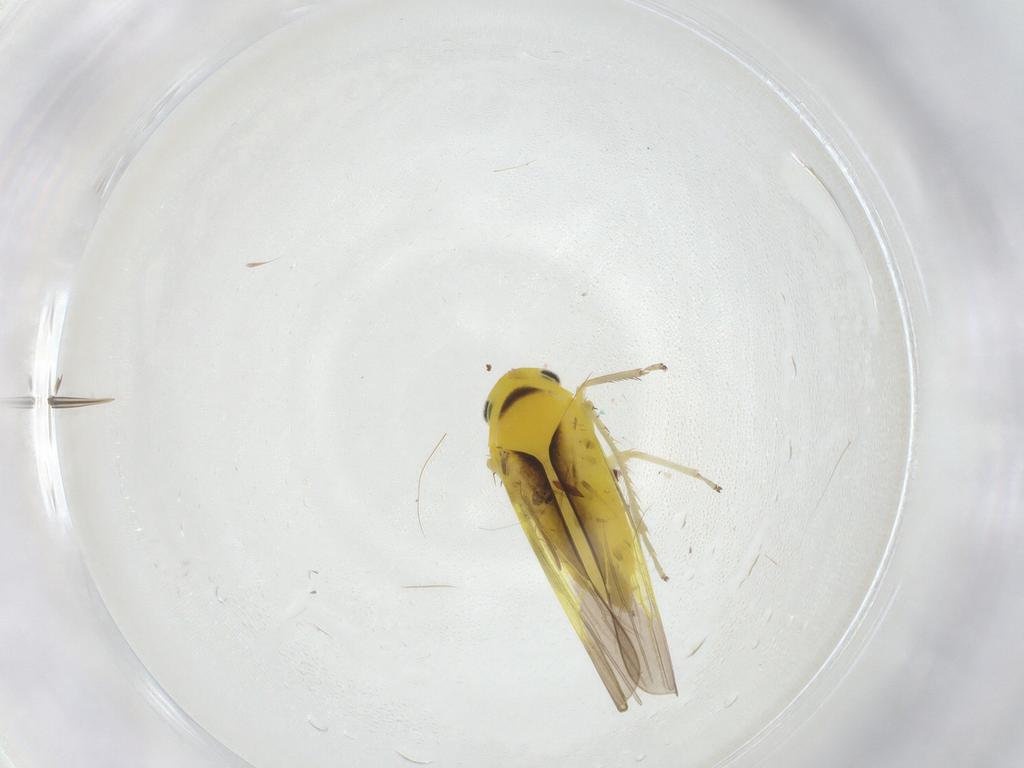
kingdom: Animalia
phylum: Arthropoda
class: Insecta
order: Hemiptera
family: Cicadellidae
